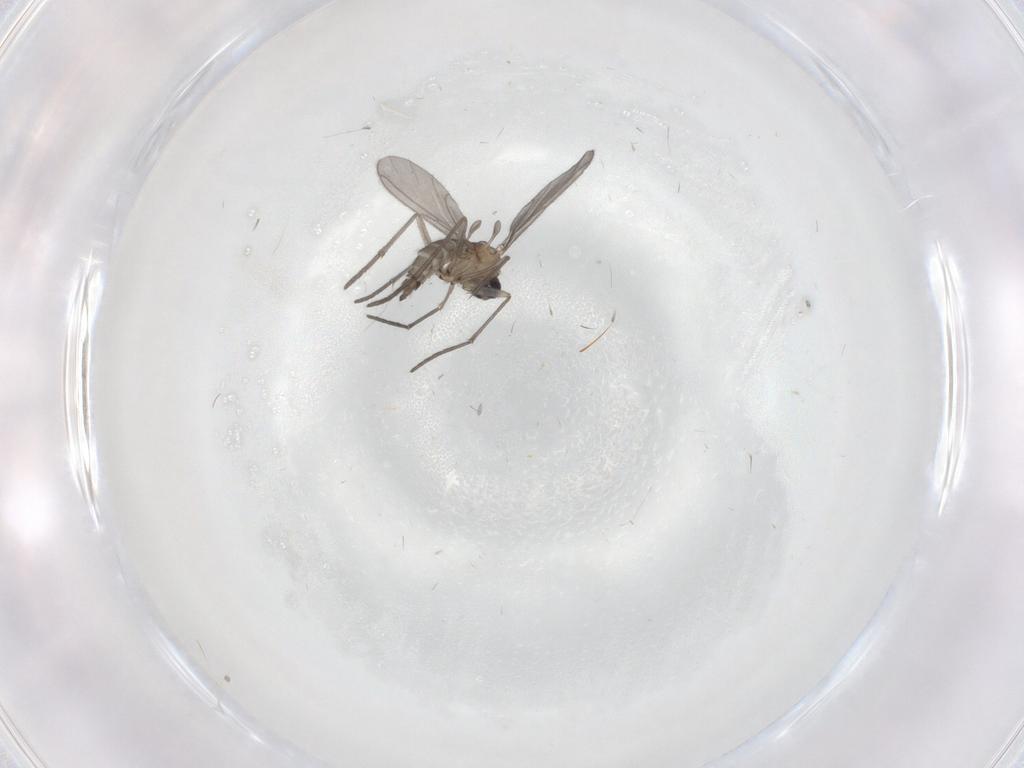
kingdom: Animalia
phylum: Arthropoda
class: Insecta
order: Diptera
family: Sciaridae
